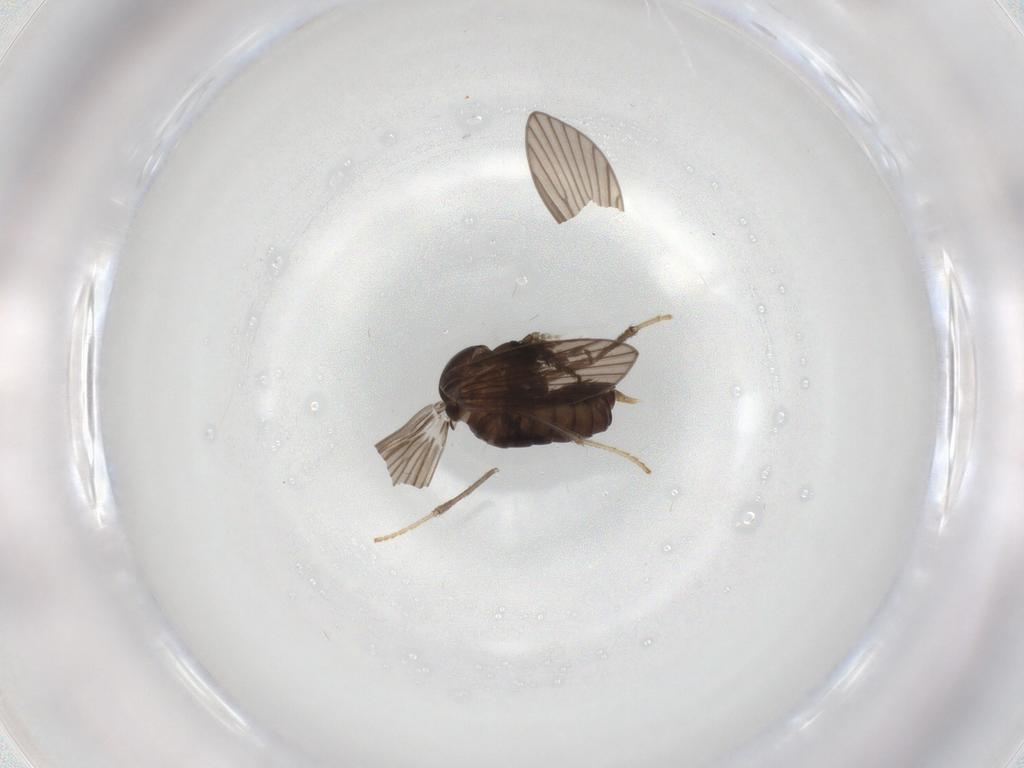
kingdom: Animalia
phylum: Arthropoda
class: Insecta
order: Diptera
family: Psychodidae
